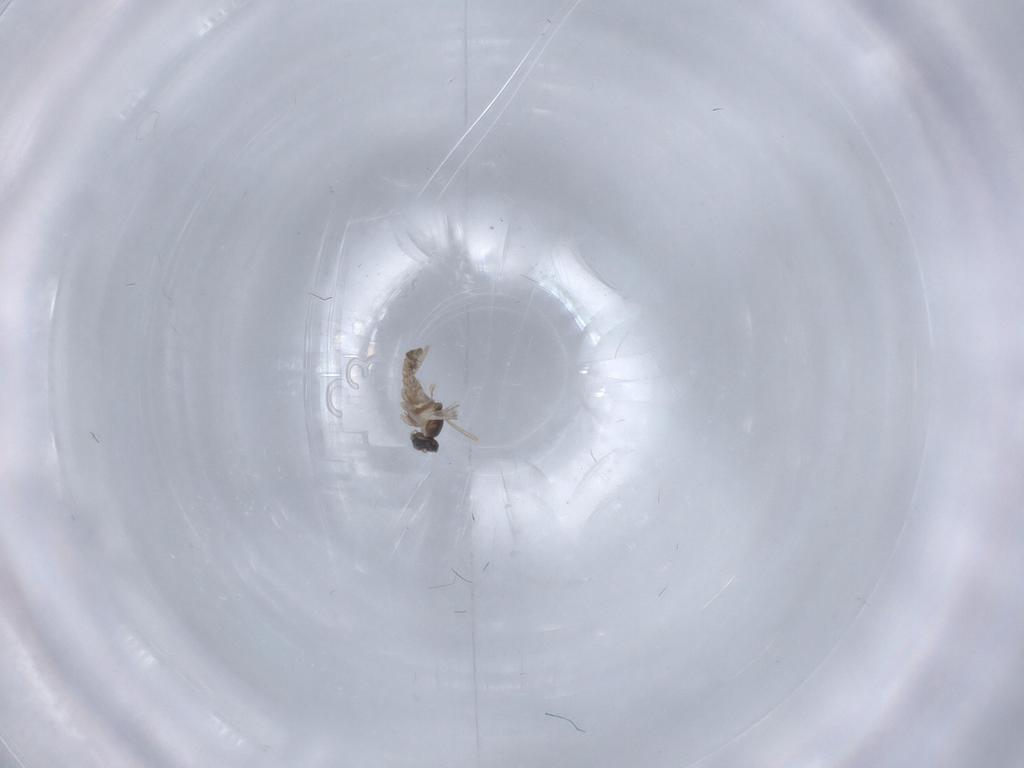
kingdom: Animalia
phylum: Arthropoda
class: Insecta
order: Diptera
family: Cecidomyiidae
